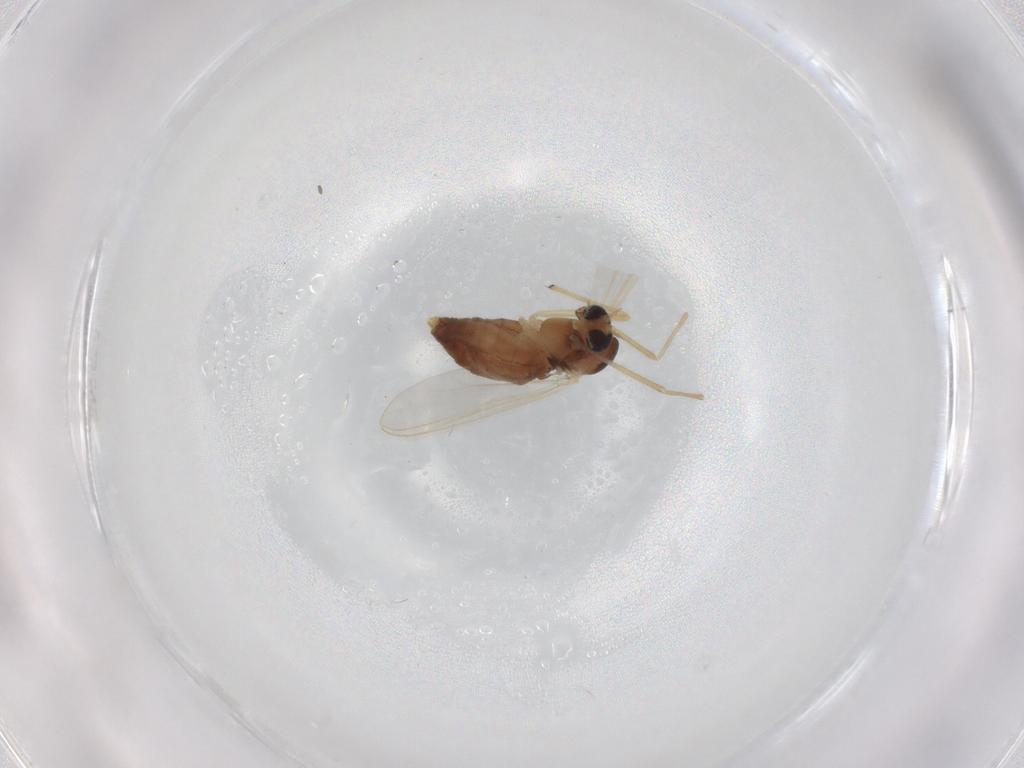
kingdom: Animalia
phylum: Arthropoda
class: Insecta
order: Diptera
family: Chironomidae
